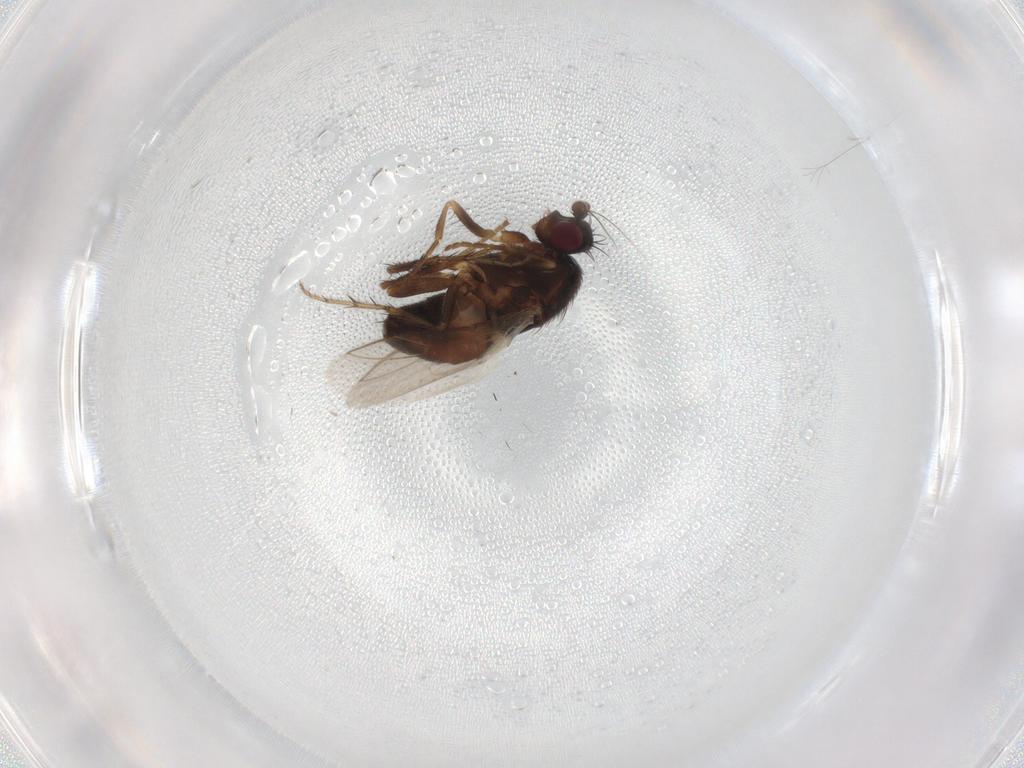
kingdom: Animalia
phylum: Arthropoda
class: Insecta
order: Diptera
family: Sphaeroceridae
